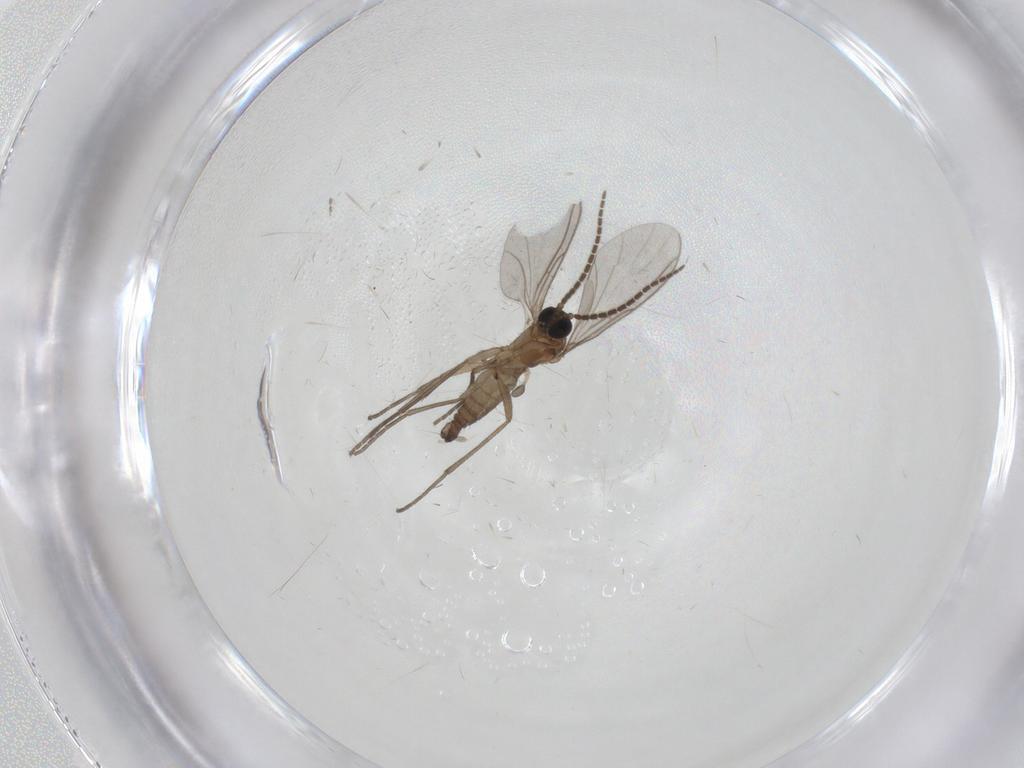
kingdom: Animalia
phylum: Arthropoda
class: Insecta
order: Diptera
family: Sciaridae
